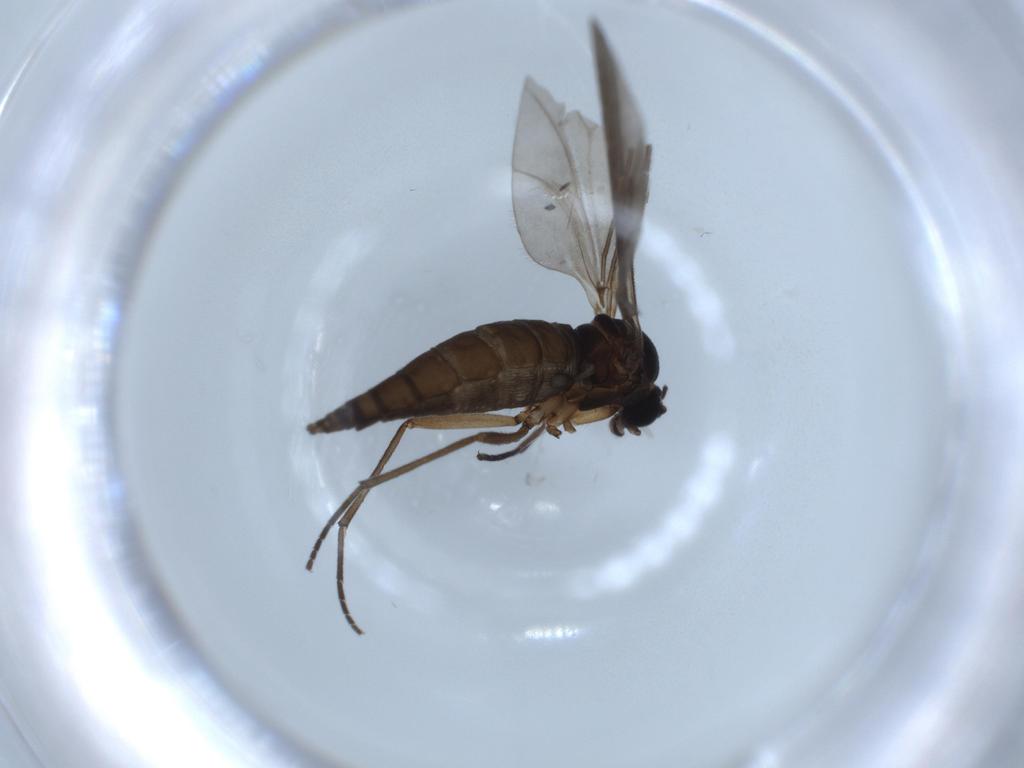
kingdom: Animalia
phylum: Arthropoda
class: Insecta
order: Diptera
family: Sciaridae
